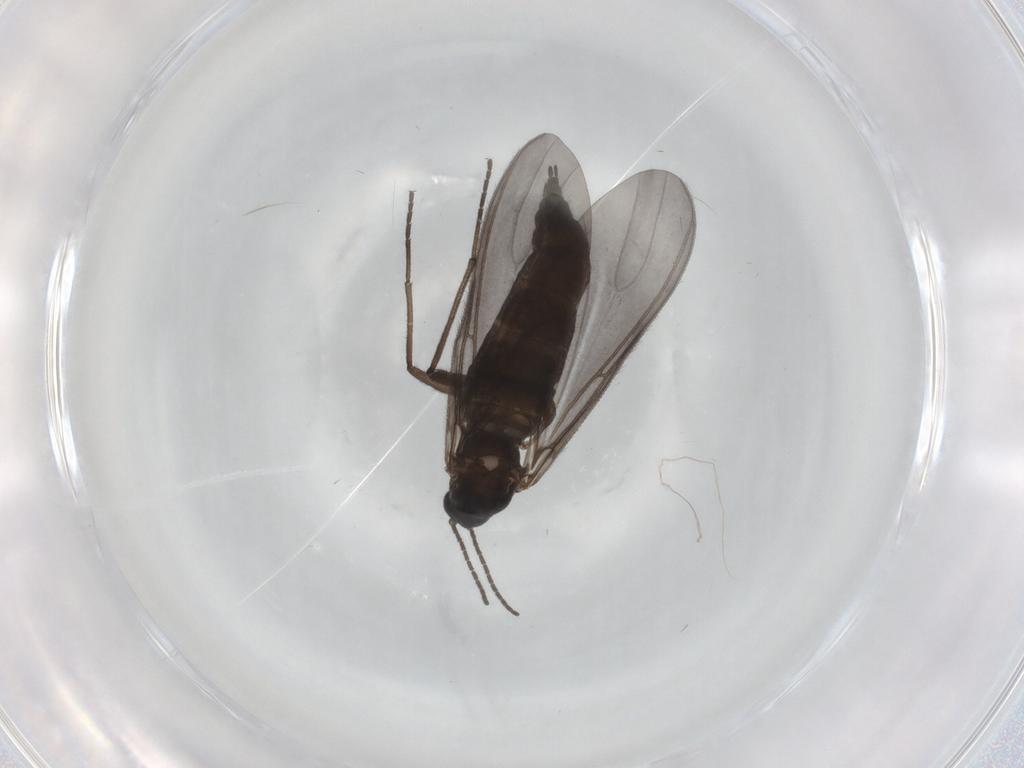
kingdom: Animalia
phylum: Arthropoda
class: Insecta
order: Diptera
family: Sciaridae
